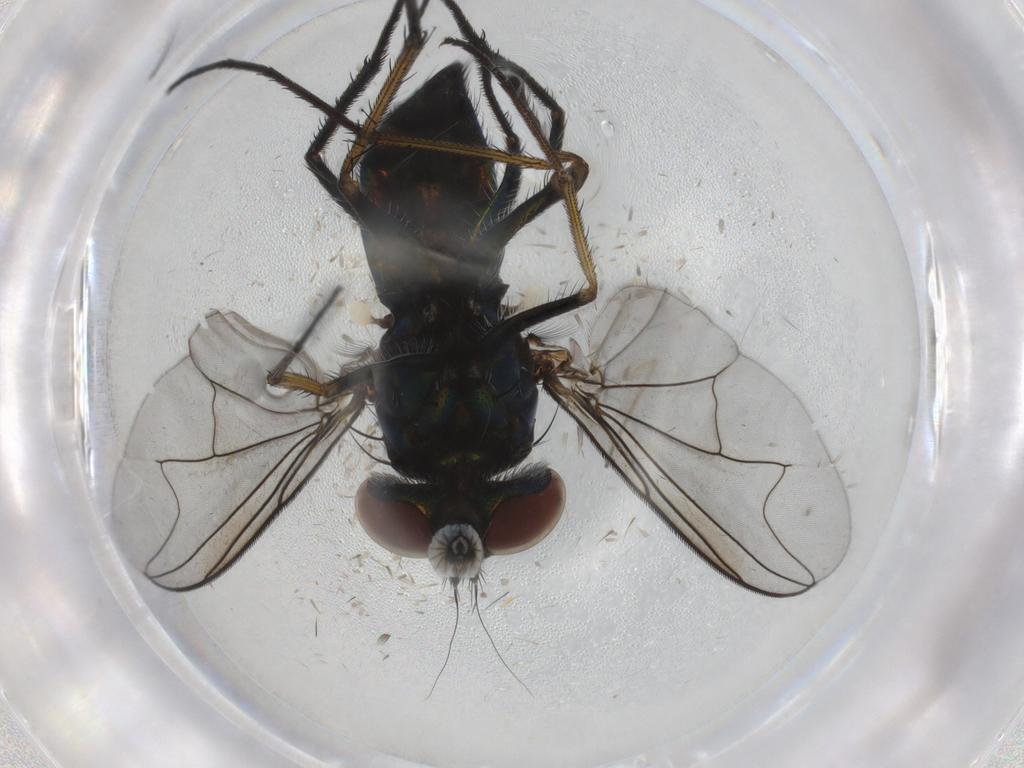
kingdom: Animalia
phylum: Arthropoda
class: Insecta
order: Diptera
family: Chironomidae
